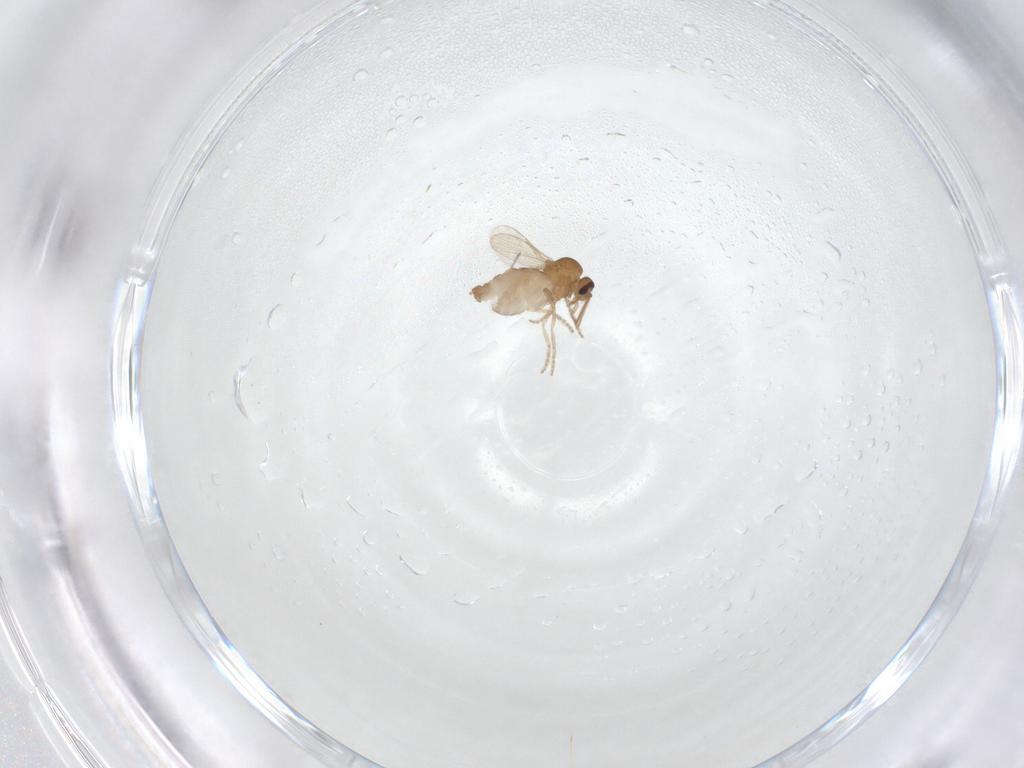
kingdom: Animalia
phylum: Arthropoda
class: Insecta
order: Diptera
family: Ceratopogonidae
